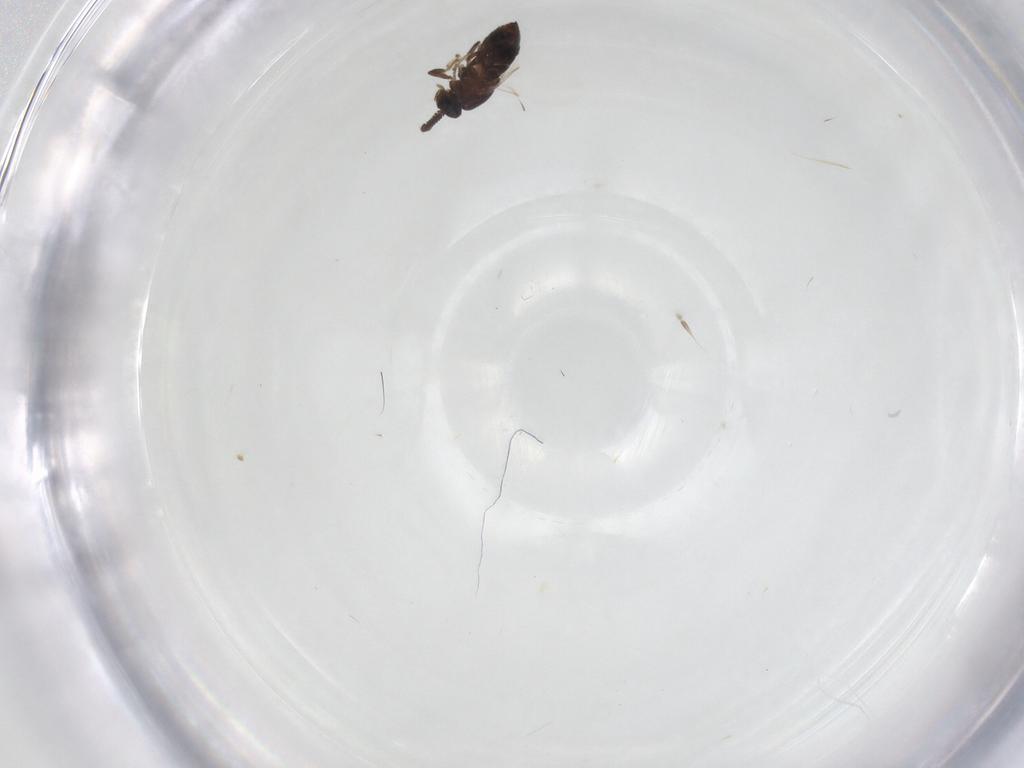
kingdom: Animalia
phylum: Arthropoda
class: Insecta
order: Diptera
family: Scatopsidae
